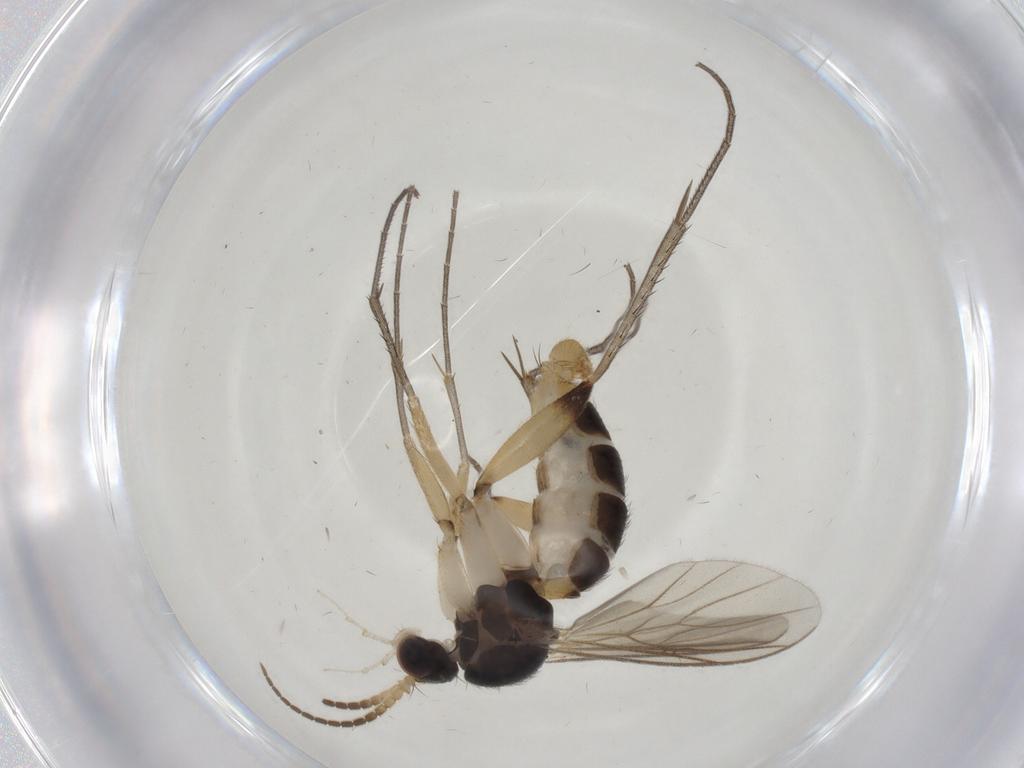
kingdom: Animalia
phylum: Arthropoda
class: Insecta
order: Diptera
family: Mycetophilidae
